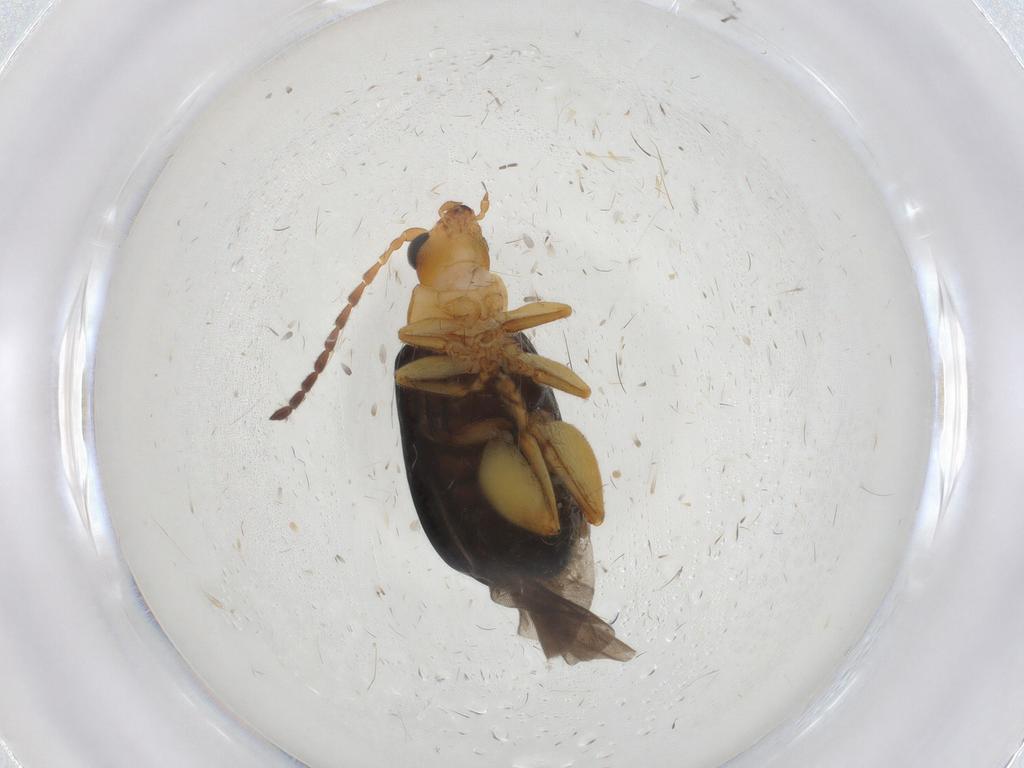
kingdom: Animalia
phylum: Arthropoda
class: Insecta
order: Coleoptera
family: Chrysomelidae
